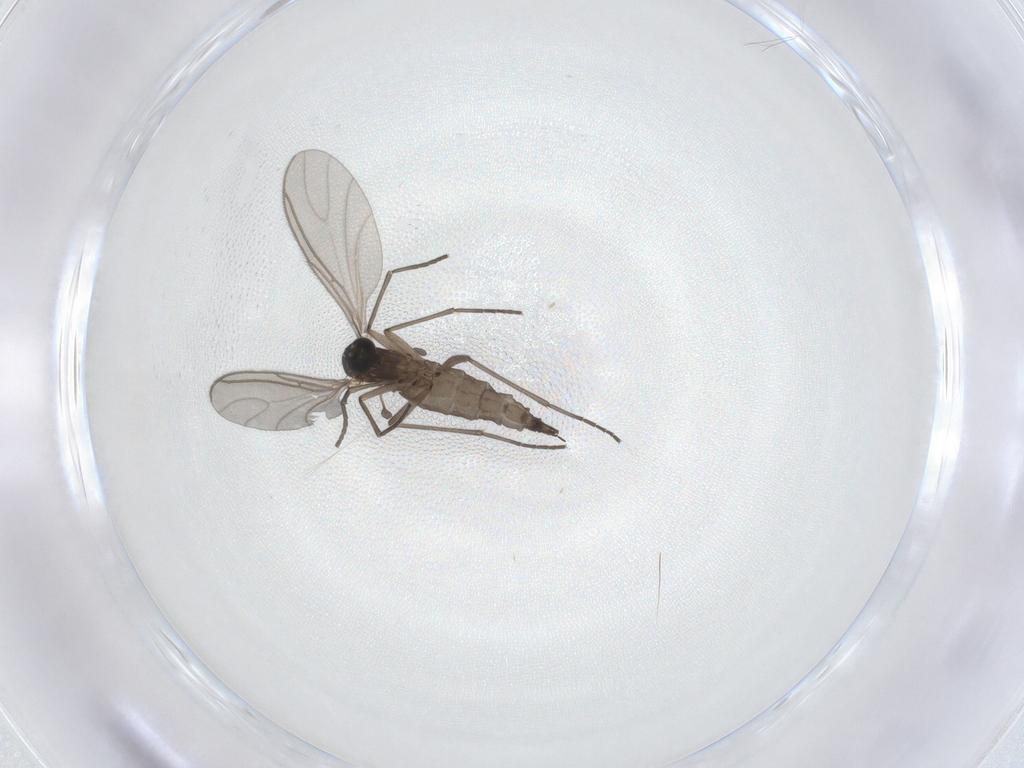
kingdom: Animalia
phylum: Arthropoda
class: Insecta
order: Diptera
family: Sciaridae
